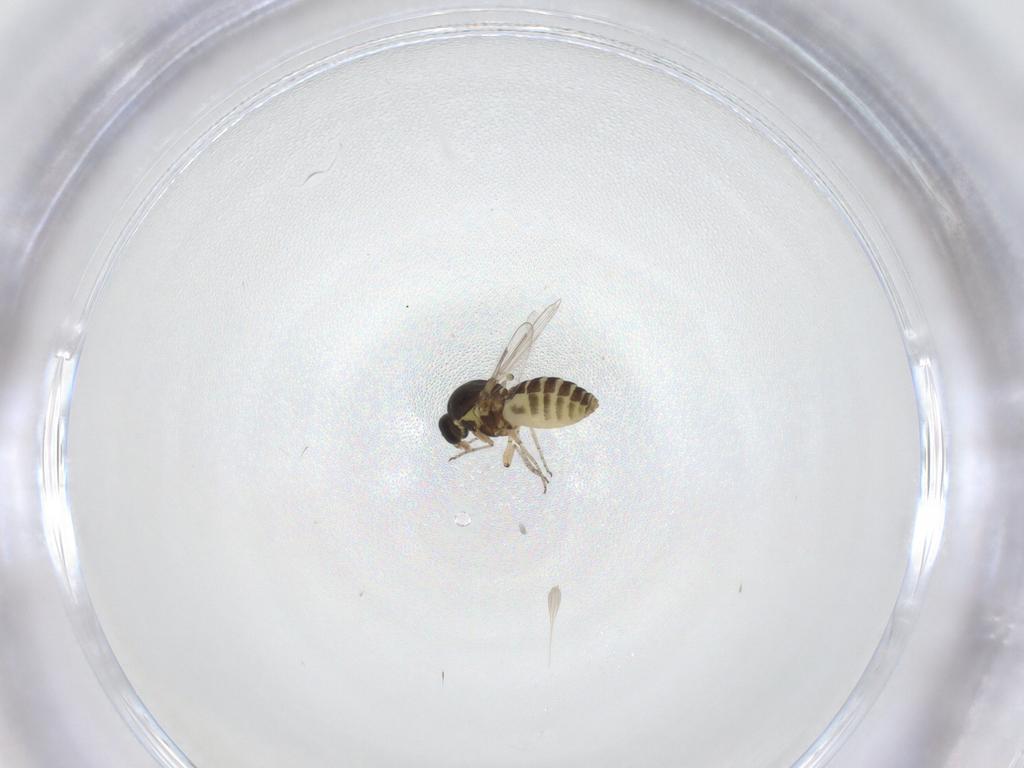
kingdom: Animalia
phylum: Arthropoda
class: Insecta
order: Diptera
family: Ceratopogonidae
